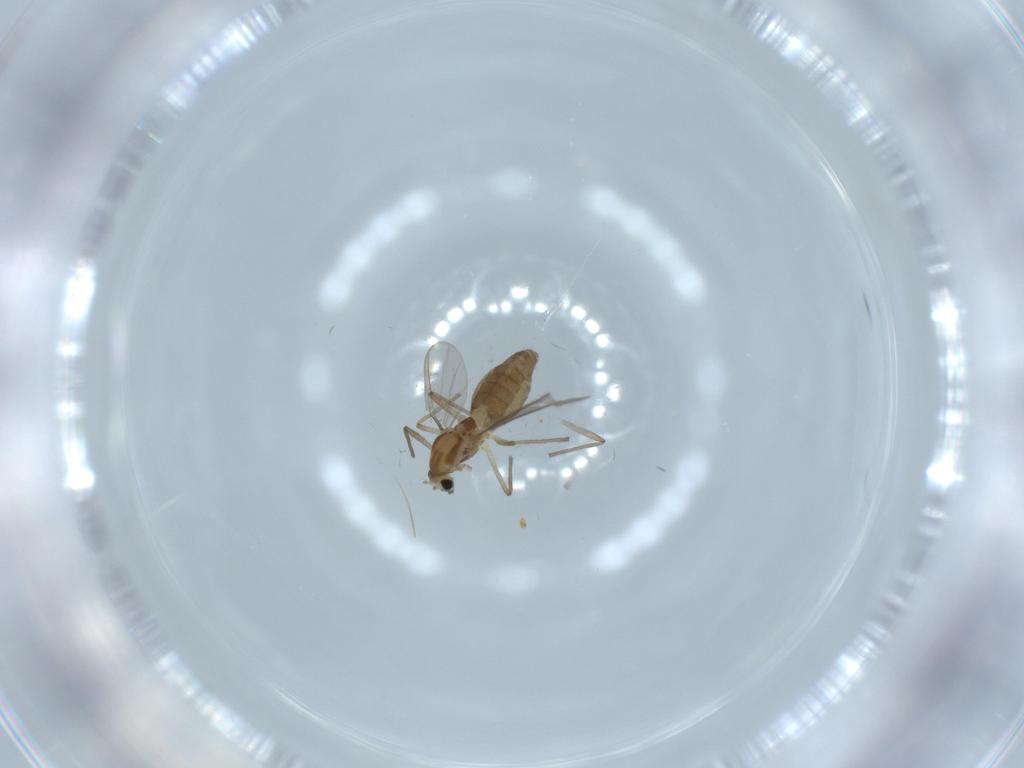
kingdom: Animalia
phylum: Arthropoda
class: Insecta
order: Diptera
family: Chironomidae
